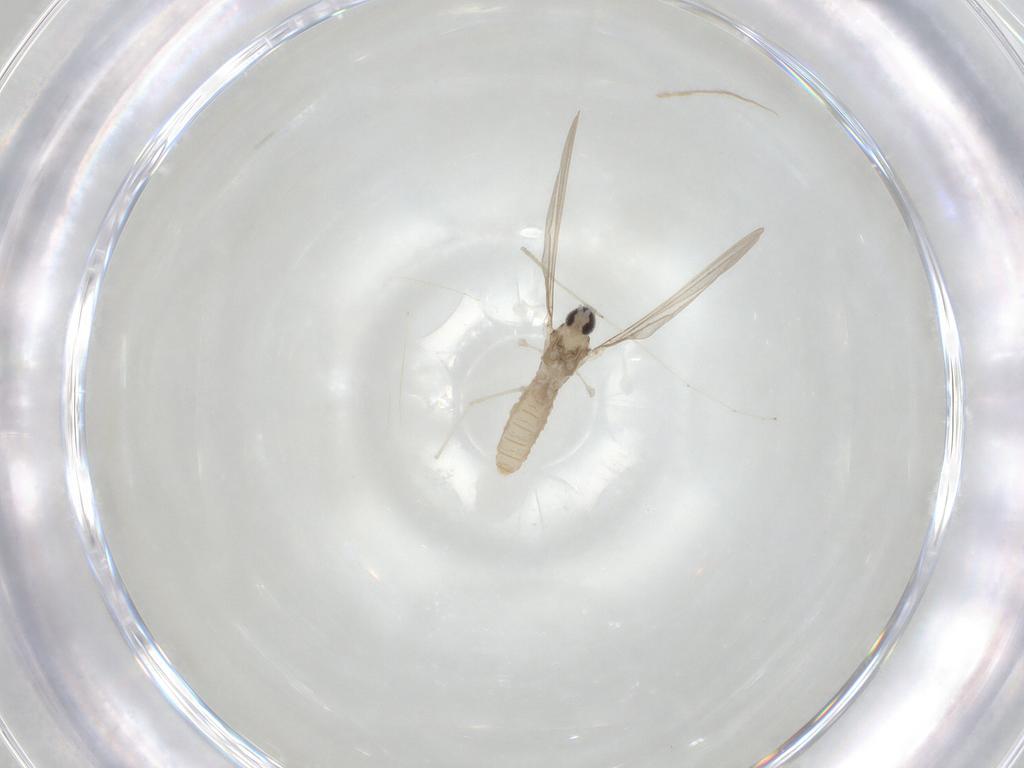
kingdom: Animalia
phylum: Arthropoda
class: Insecta
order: Diptera
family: Cecidomyiidae
